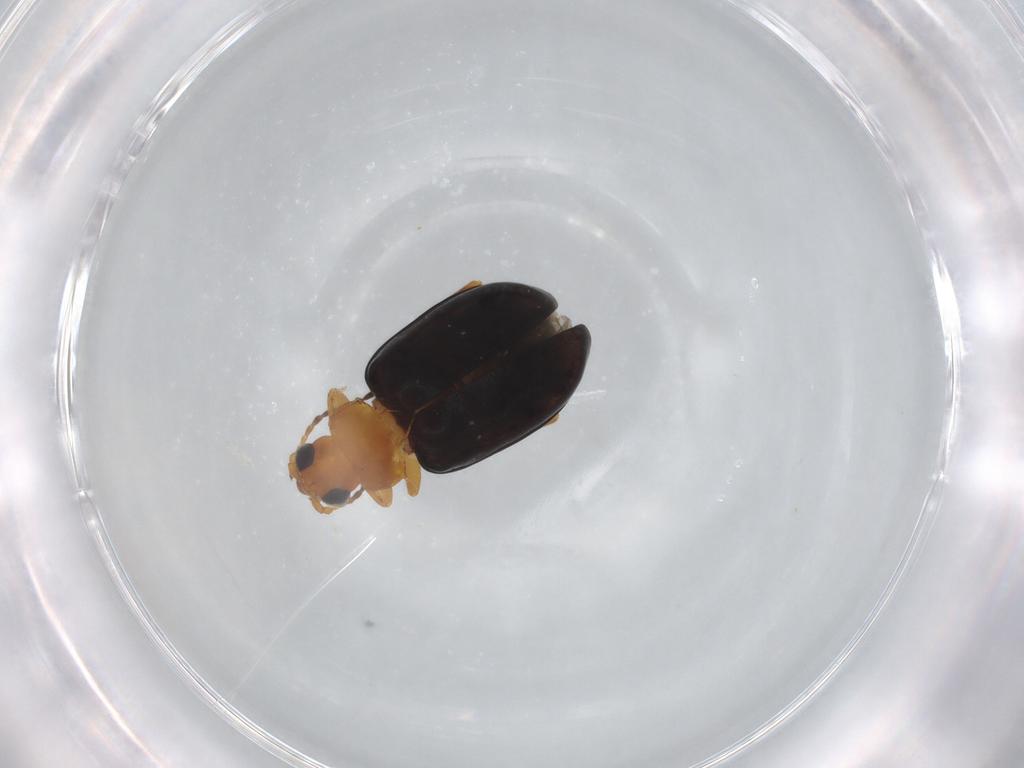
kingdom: Animalia
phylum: Arthropoda
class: Insecta
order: Coleoptera
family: Chrysomelidae
